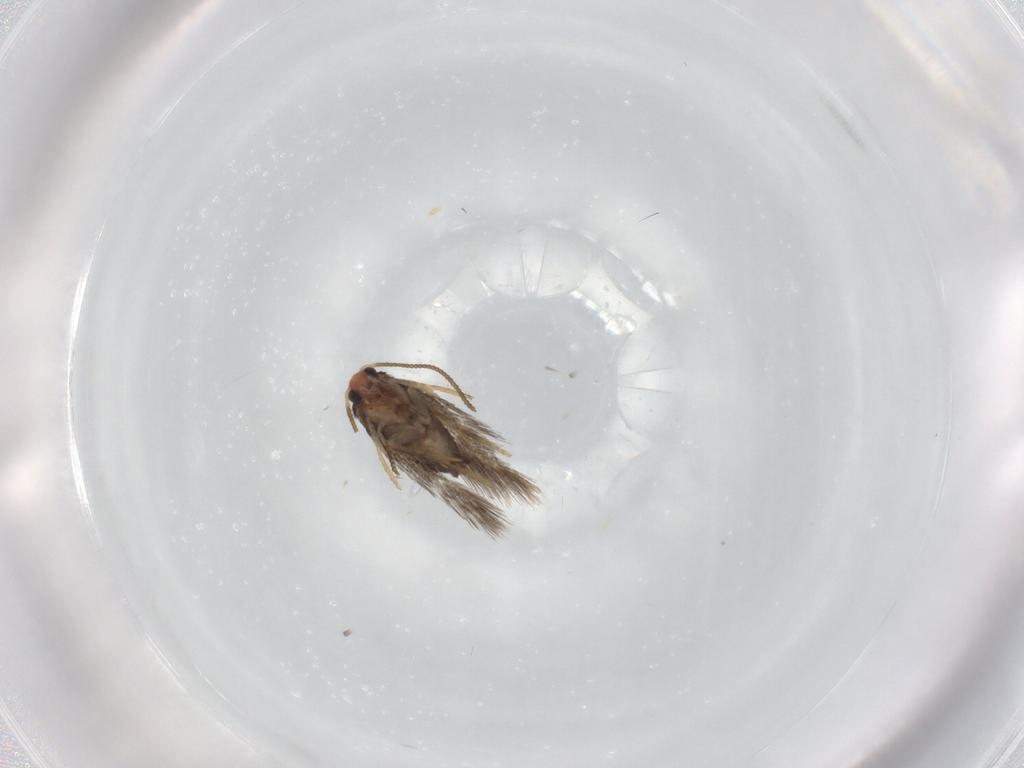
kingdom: Animalia
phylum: Arthropoda
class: Insecta
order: Lepidoptera
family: Nepticulidae
